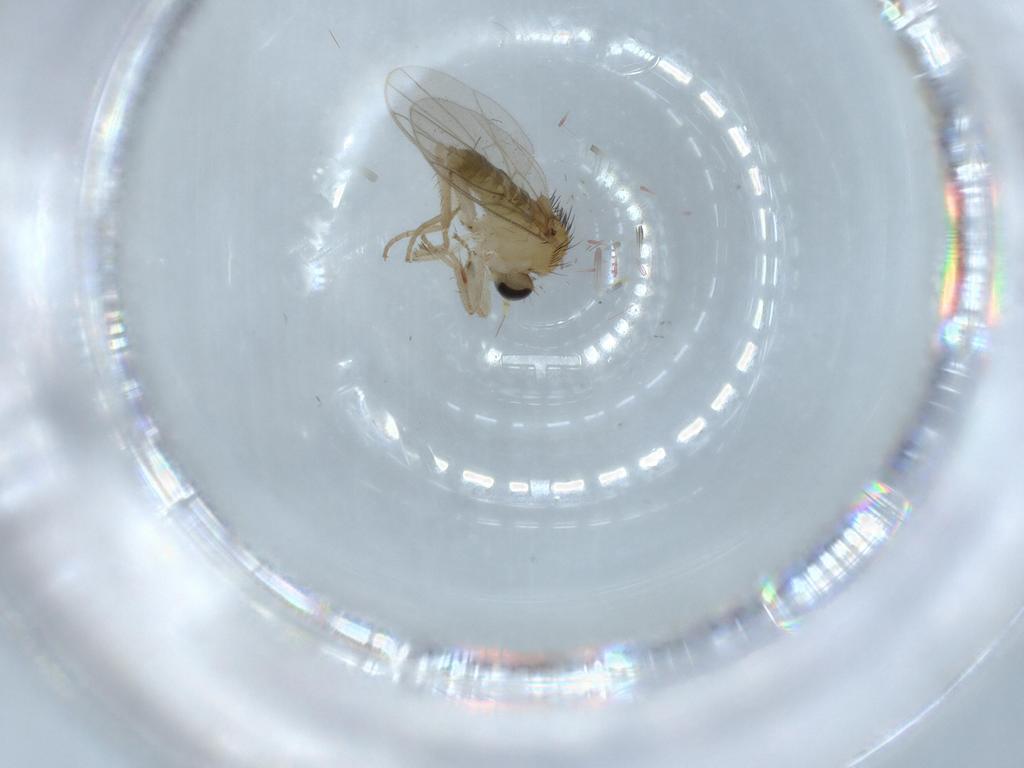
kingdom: Animalia
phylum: Arthropoda
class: Insecta
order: Diptera
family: Hybotidae
